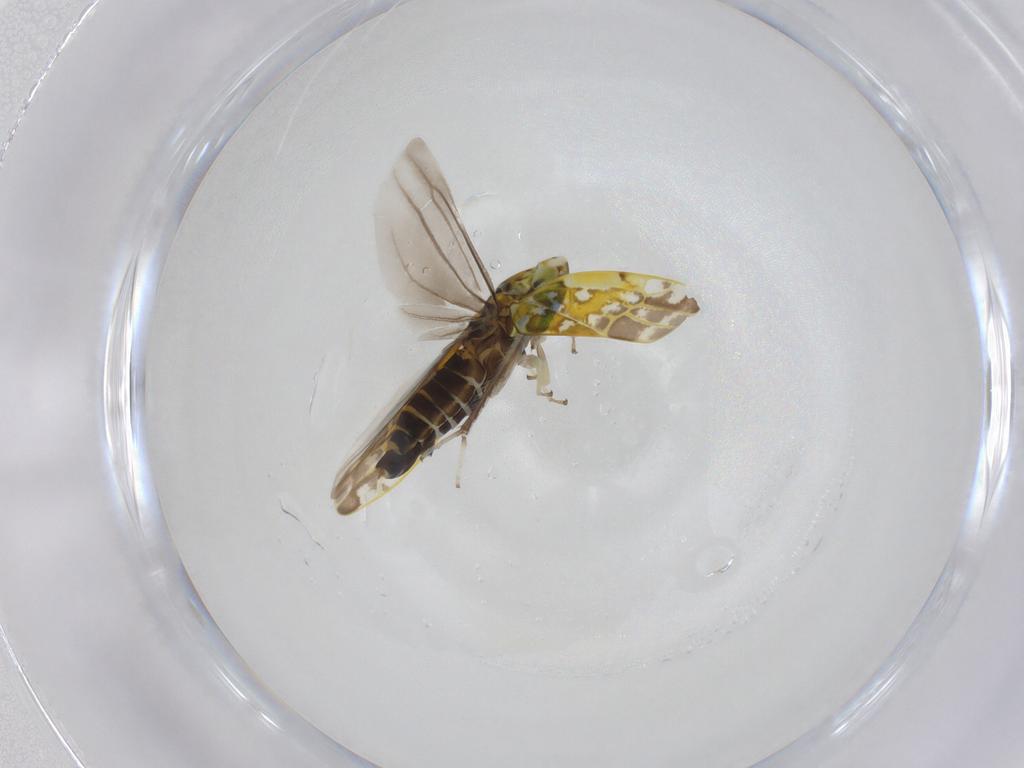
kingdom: Animalia
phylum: Arthropoda
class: Insecta
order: Hemiptera
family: Cicadellidae
